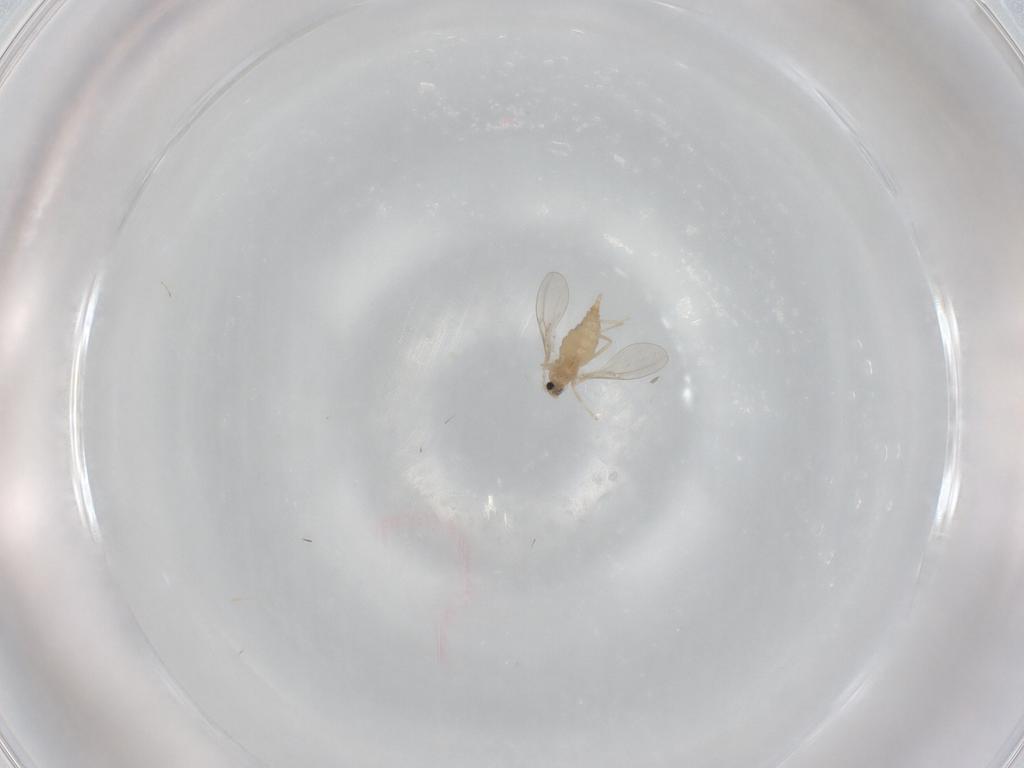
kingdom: Animalia
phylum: Arthropoda
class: Insecta
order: Diptera
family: Cecidomyiidae
